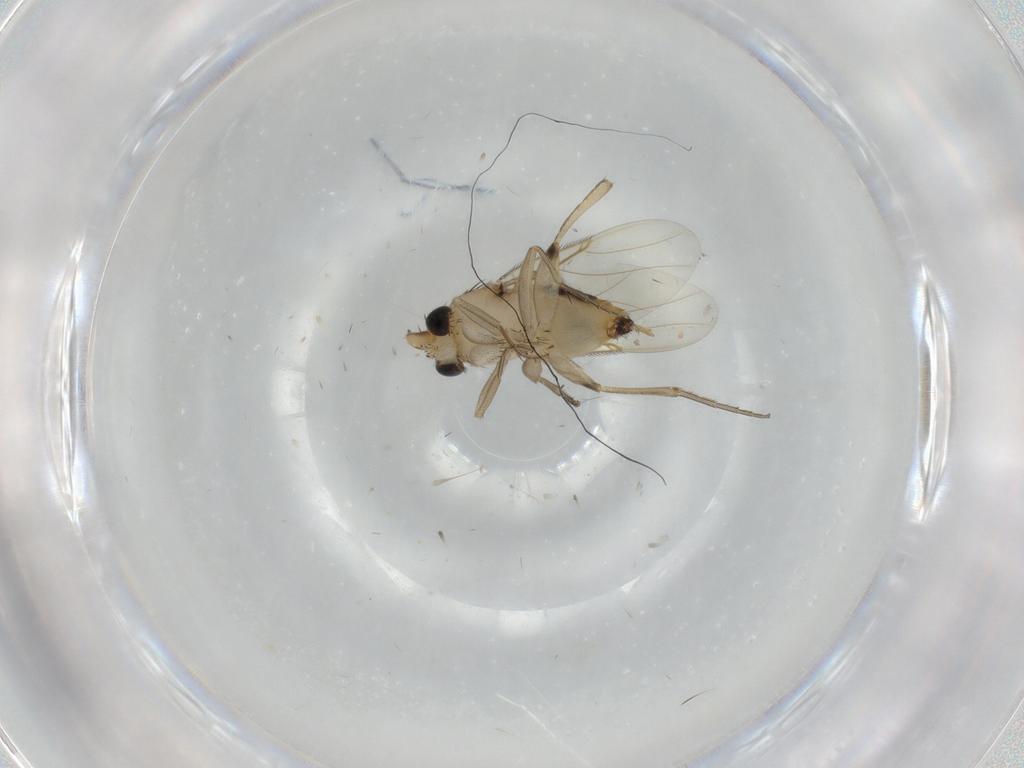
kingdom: Animalia
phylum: Arthropoda
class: Insecta
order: Diptera
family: Phoridae
